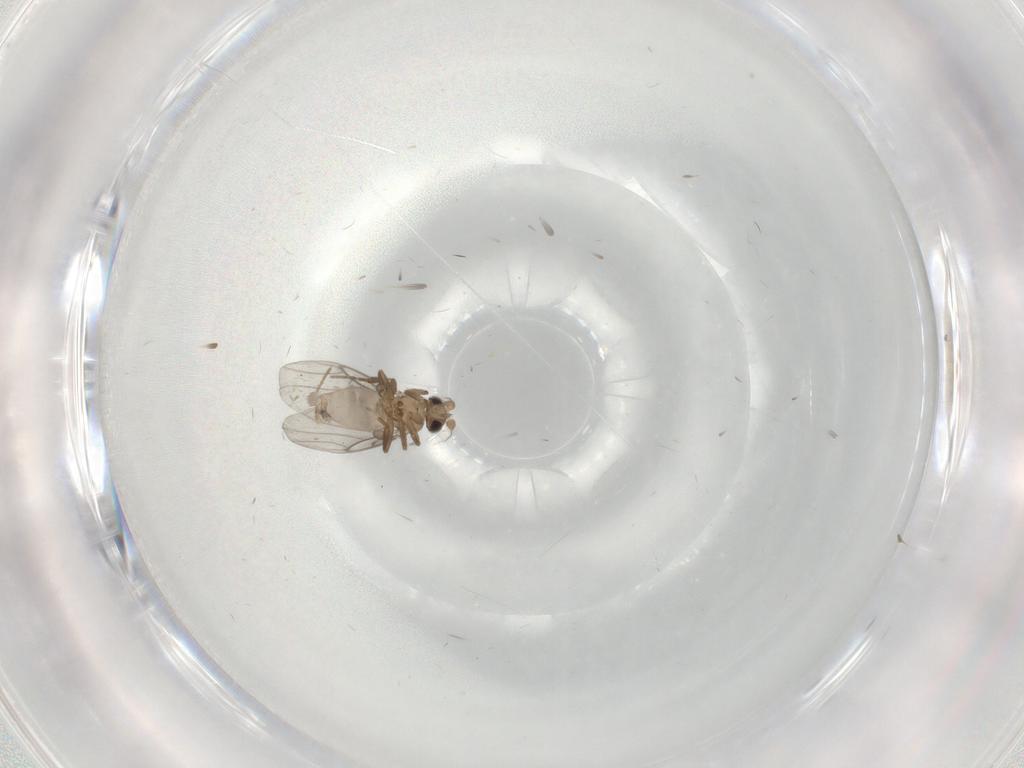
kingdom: Animalia
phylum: Arthropoda
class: Insecta
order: Diptera
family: Cecidomyiidae
